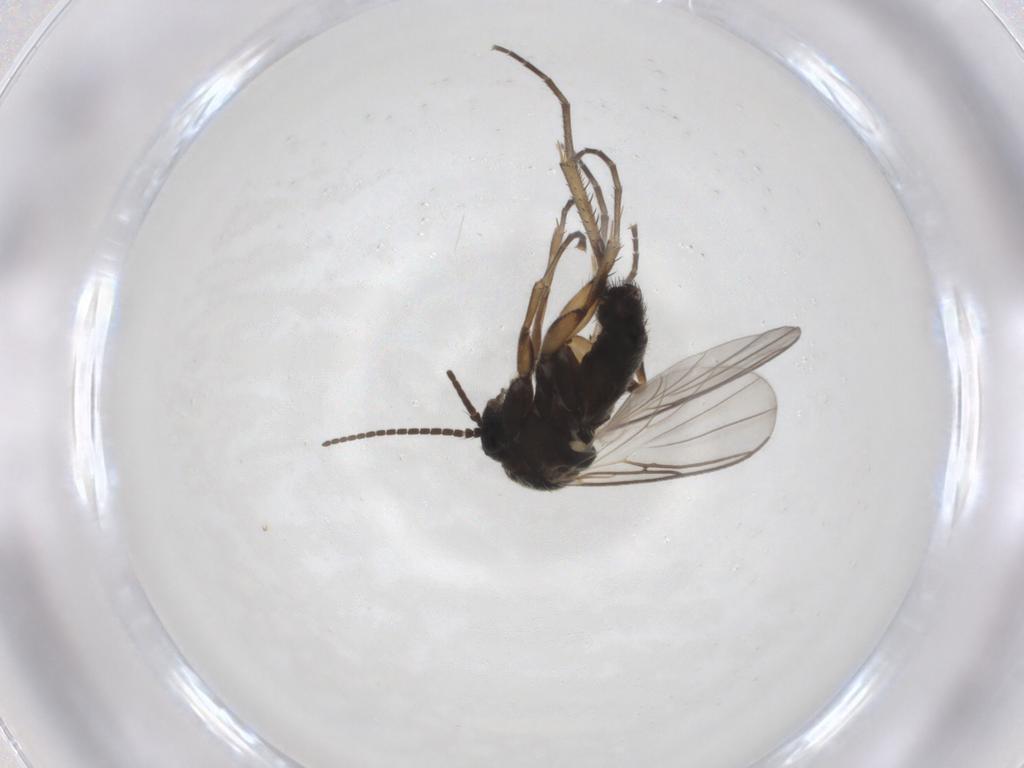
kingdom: Animalia
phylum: Arthropoda
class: Insecta
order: Diptera
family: Mycetophilidae
